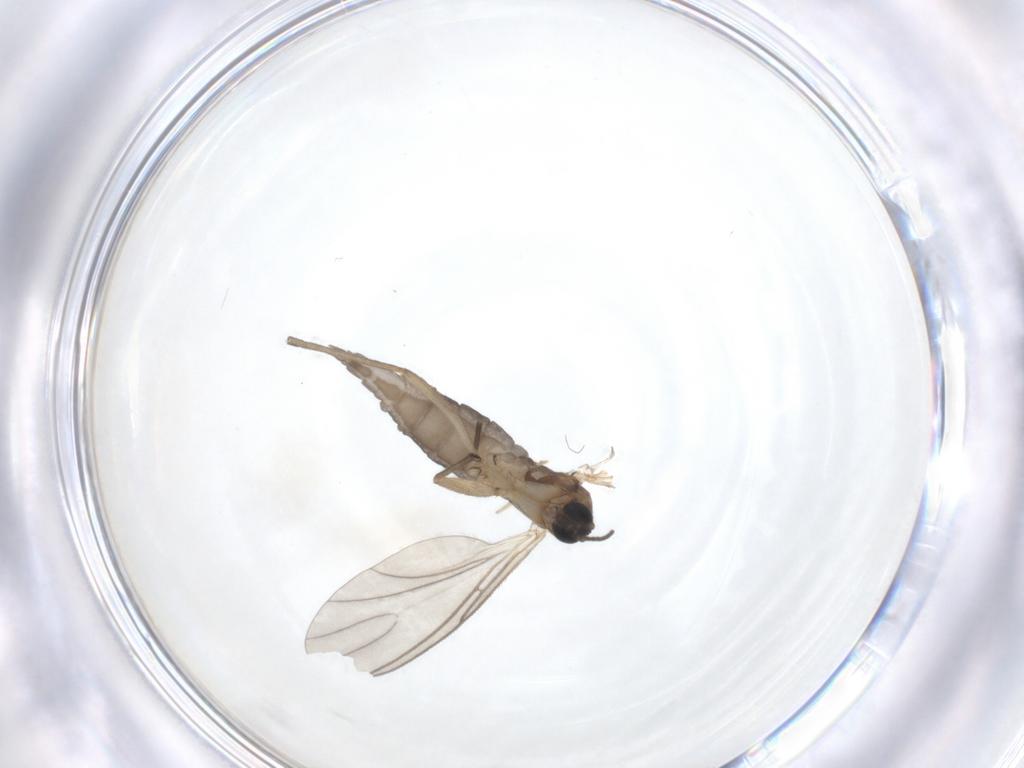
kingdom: Animalia
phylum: Arthropoda
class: Insecta
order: Diptera
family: Sciaridae
